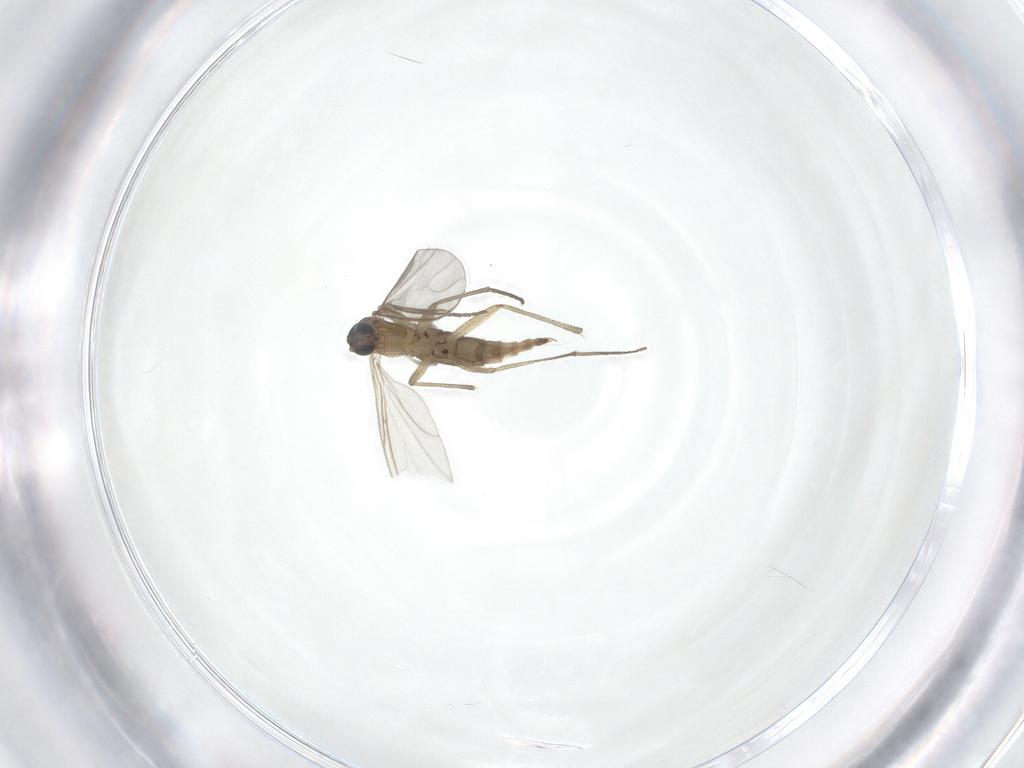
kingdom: Animalia
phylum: Arthropoda
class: Insecta
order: Diptera
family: Sciaridae
